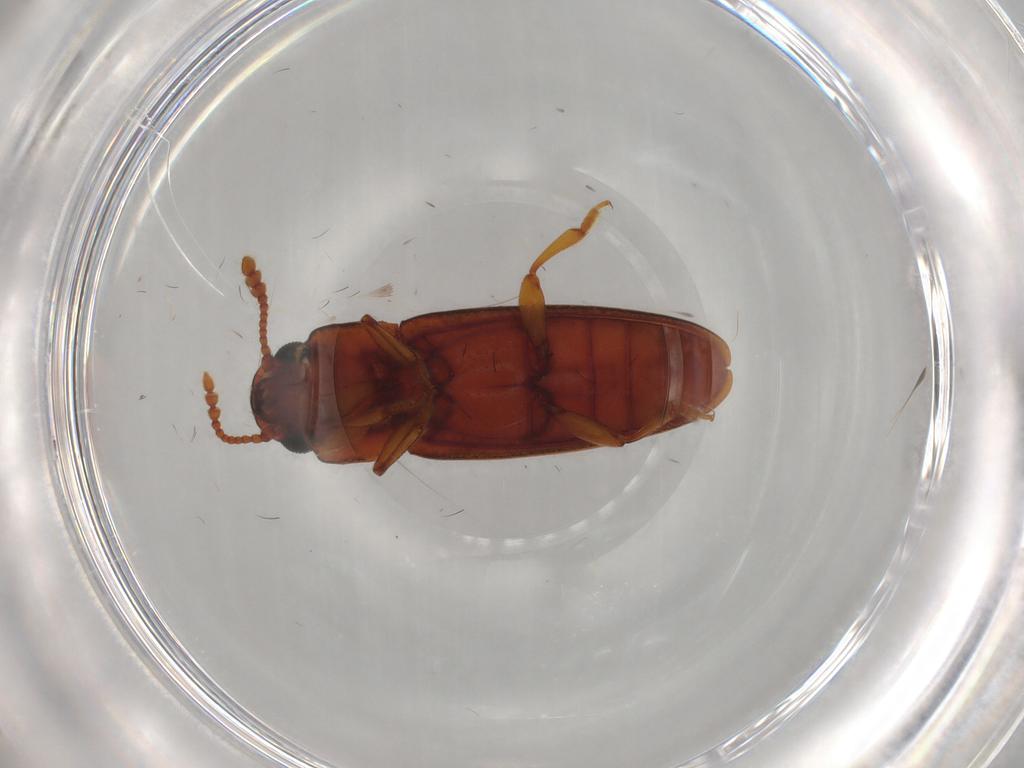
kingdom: Animalia
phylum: Arthropoda
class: Insecta
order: Coleoptera
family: Erotylidae
